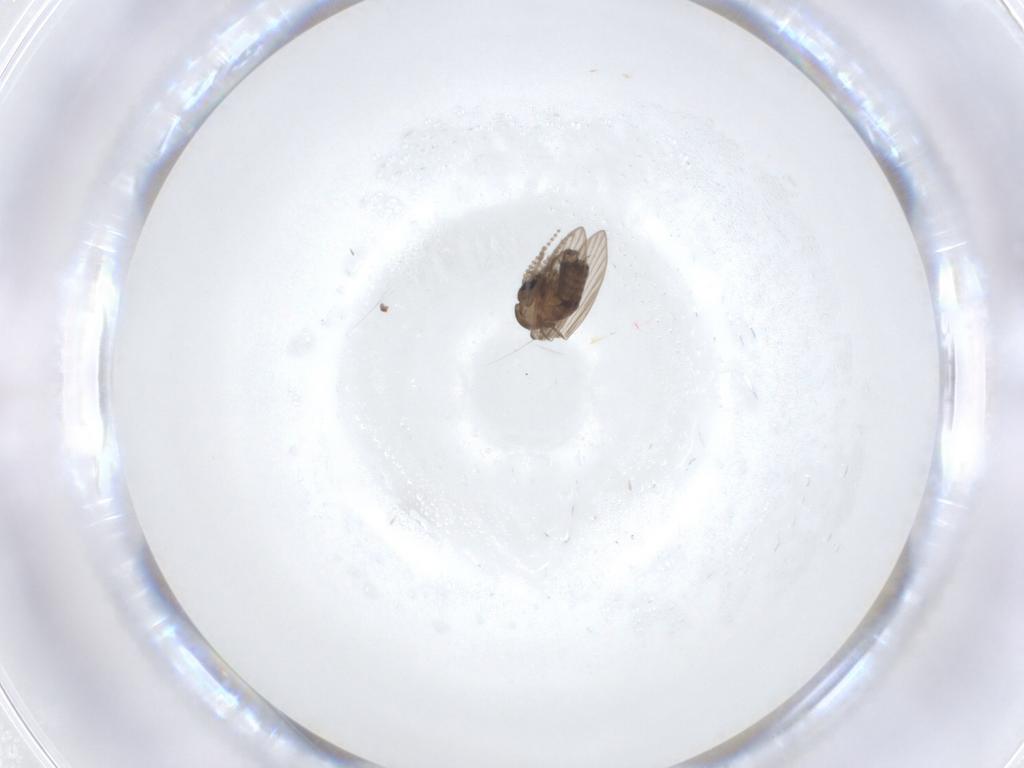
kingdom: Animalia
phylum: Arthropoda
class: Insecta
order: Diptera
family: Psychodidae
